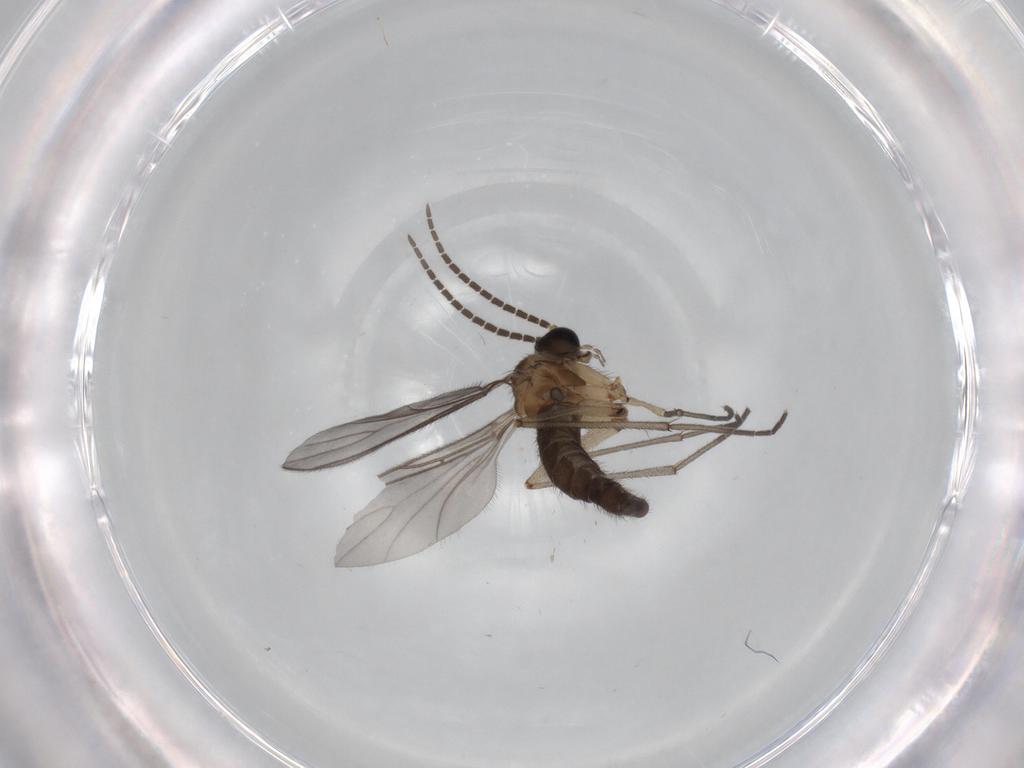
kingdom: Animalia
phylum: Arthropoda
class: Insecta
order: Diptera
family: Sciaridae
